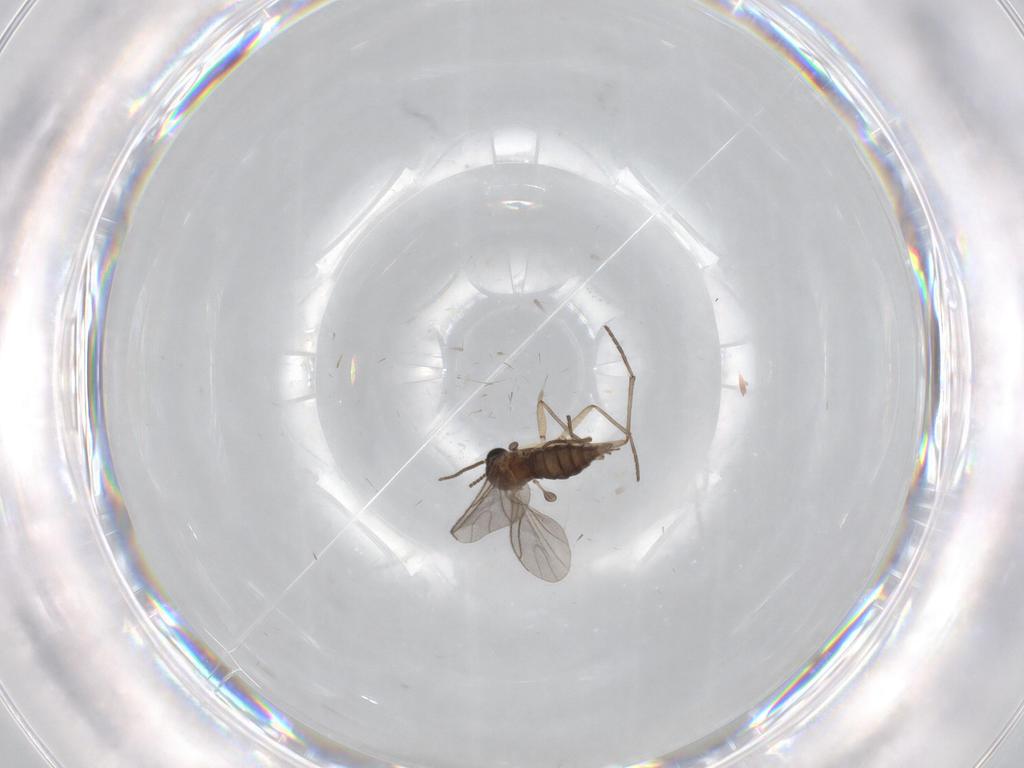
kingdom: Animalia
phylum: Arthropoda
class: Insecta
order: Diptera
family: Sciaridae
